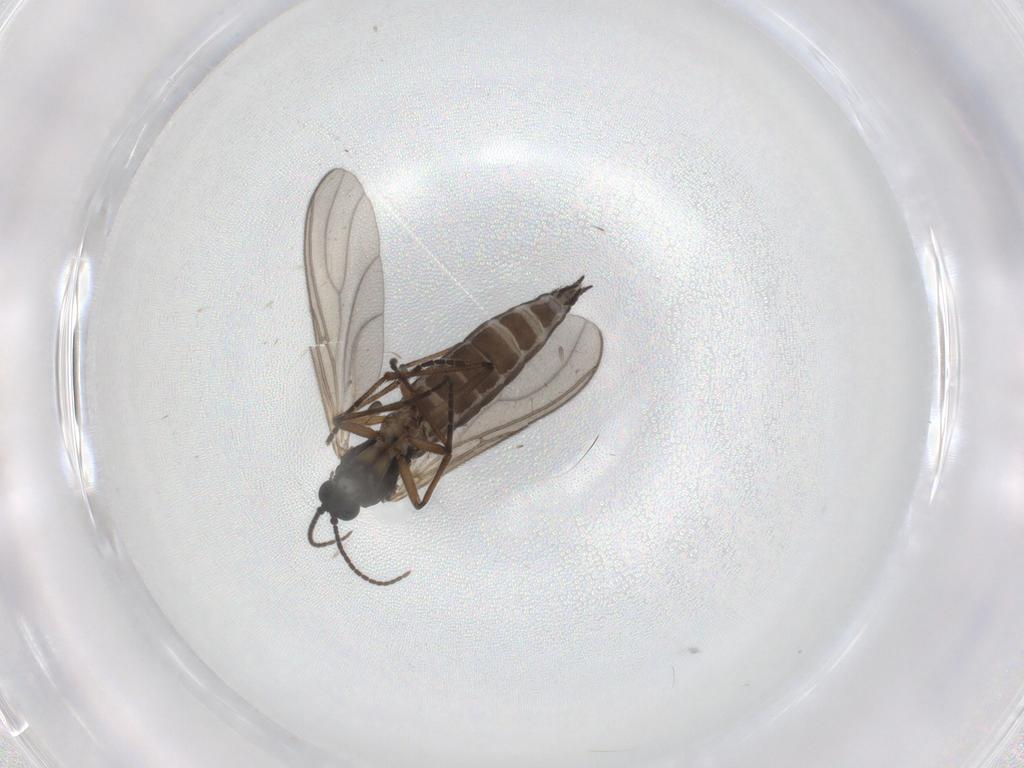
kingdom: Animalia
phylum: Arthropoda
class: Insecta
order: Diptera
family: Sciaridae
